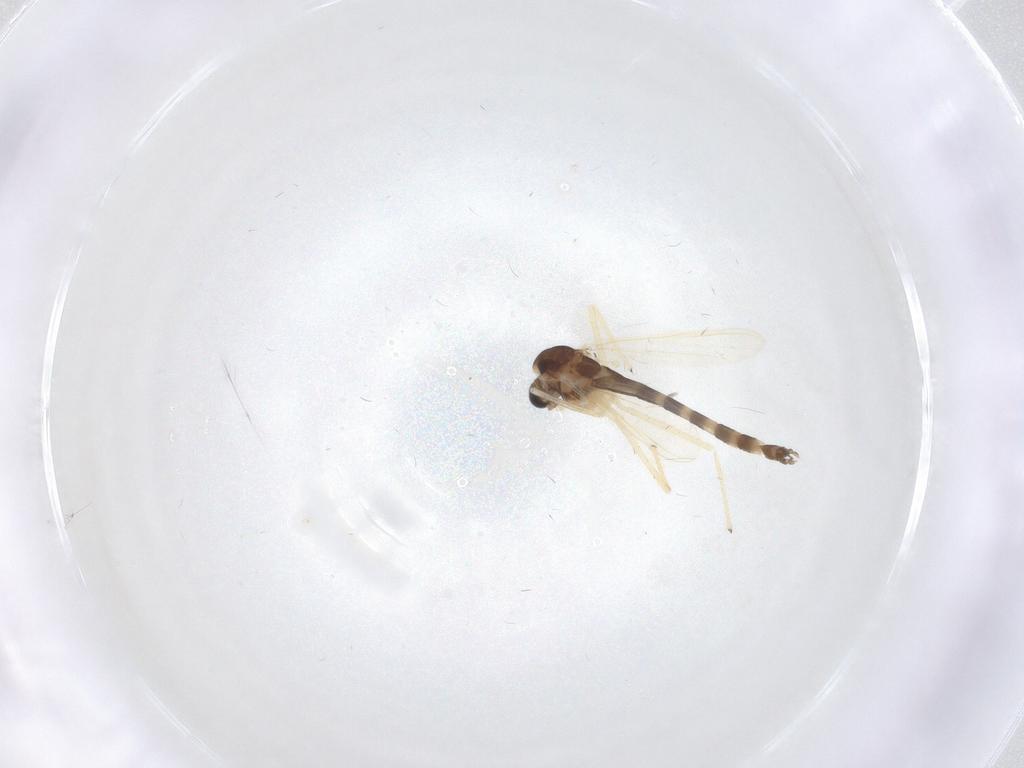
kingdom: Animalia
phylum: Arthropoda
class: Insecta
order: Diptera
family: Chironomidae
